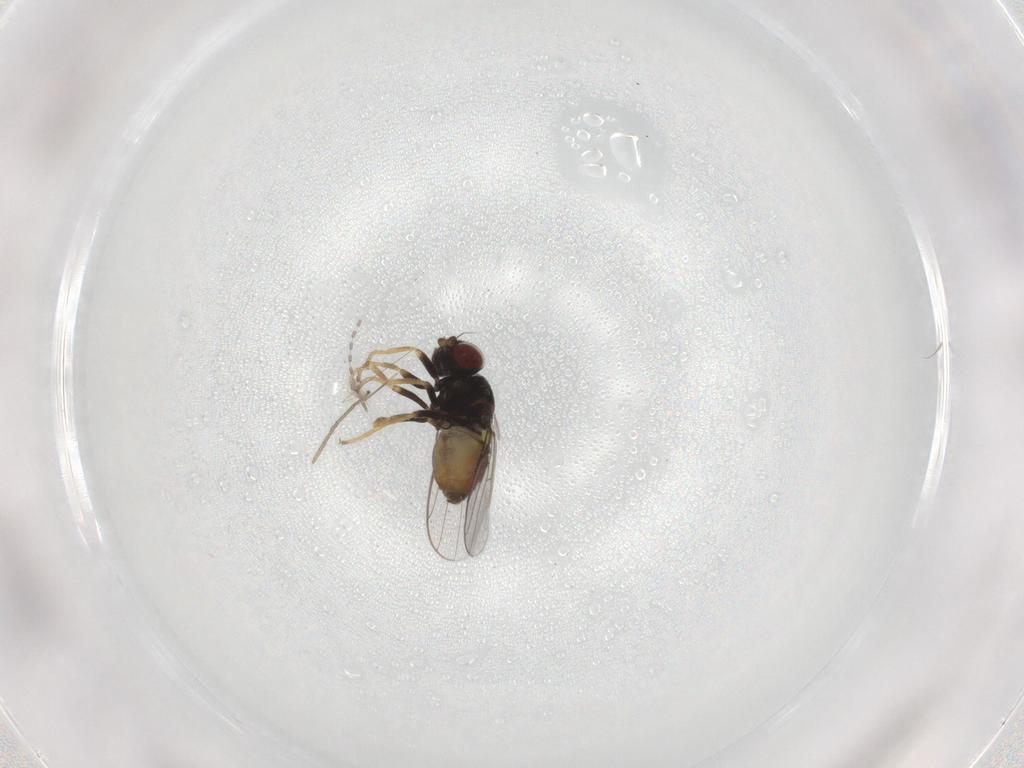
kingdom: Animalia
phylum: Arthropoda
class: Insecta
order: Diptera
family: Chloropidae
